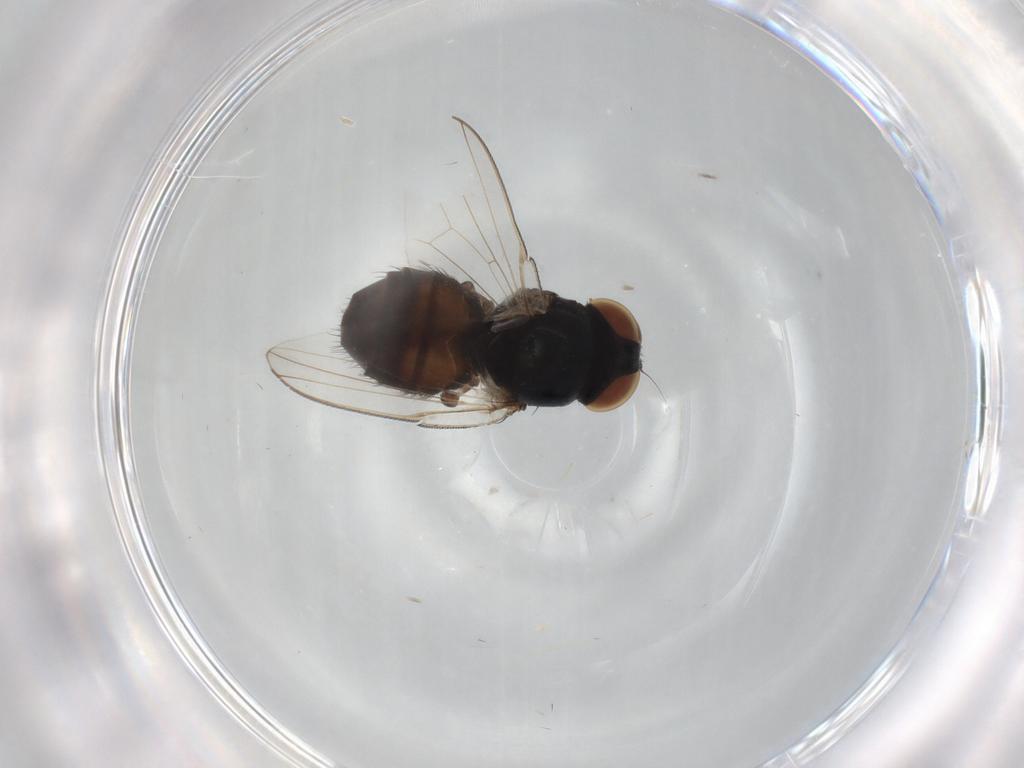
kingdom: Animalia
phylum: Arthropoda
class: Insecta
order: Diptera
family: Milichiidae
